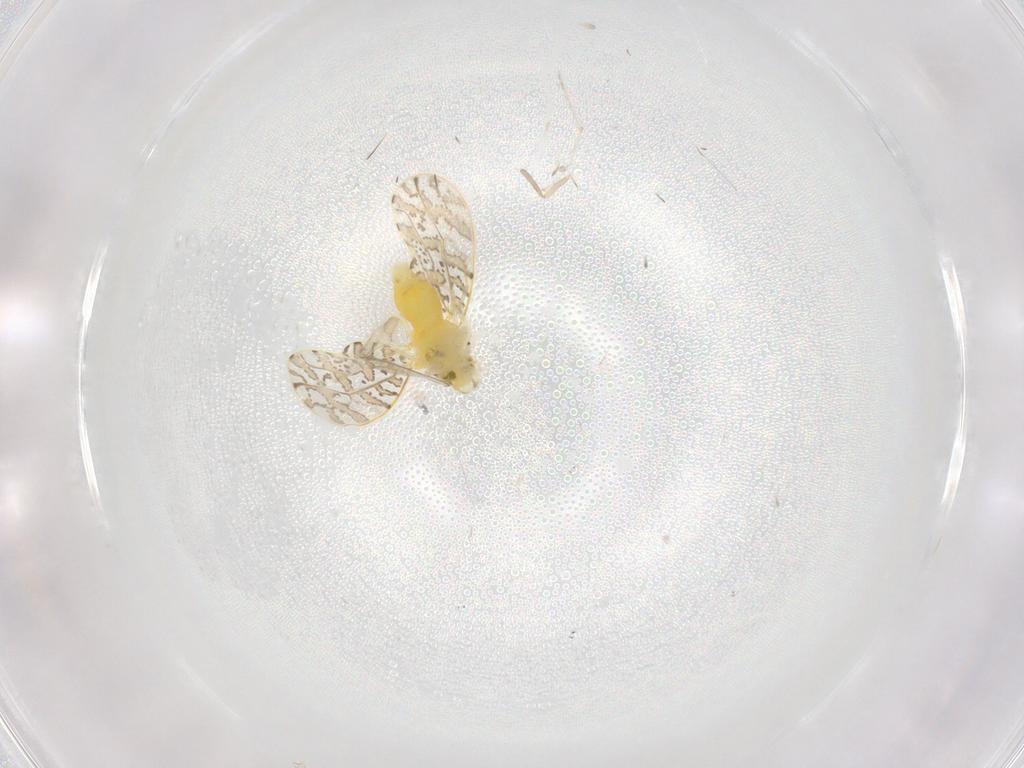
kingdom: Animalia
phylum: Arthropoda
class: Insecta
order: Hemiptera
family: Aleyrodidae
